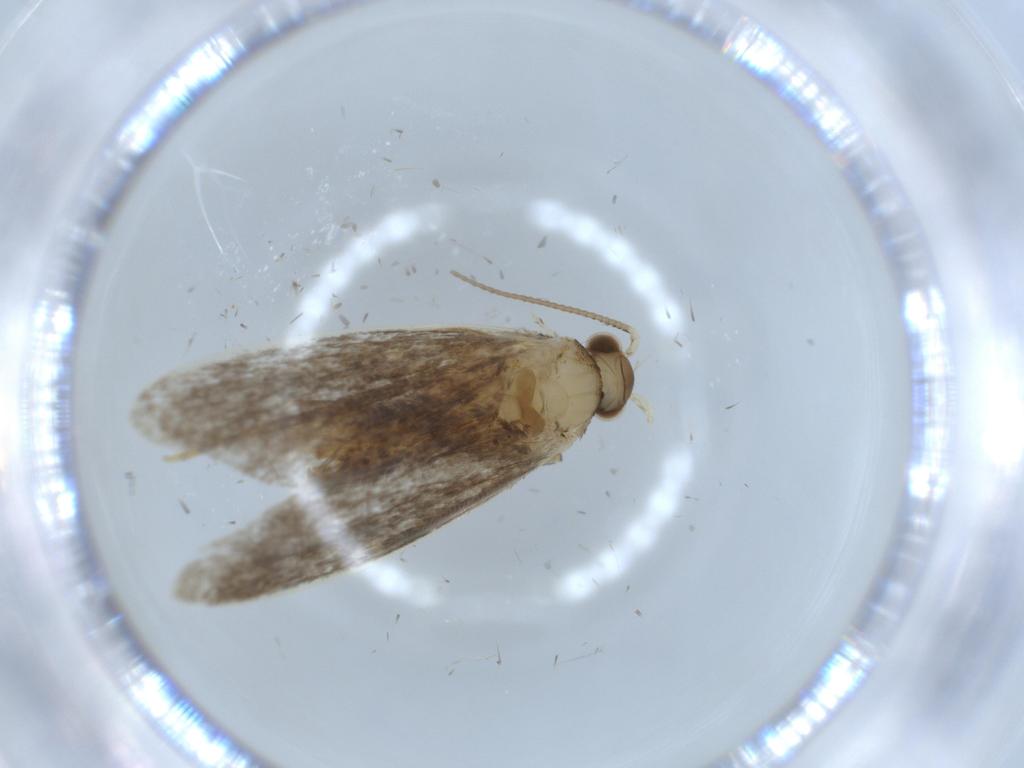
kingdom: Animalia
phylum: Arthropoda
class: Insecta
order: Lepidoptera
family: Tineidae
